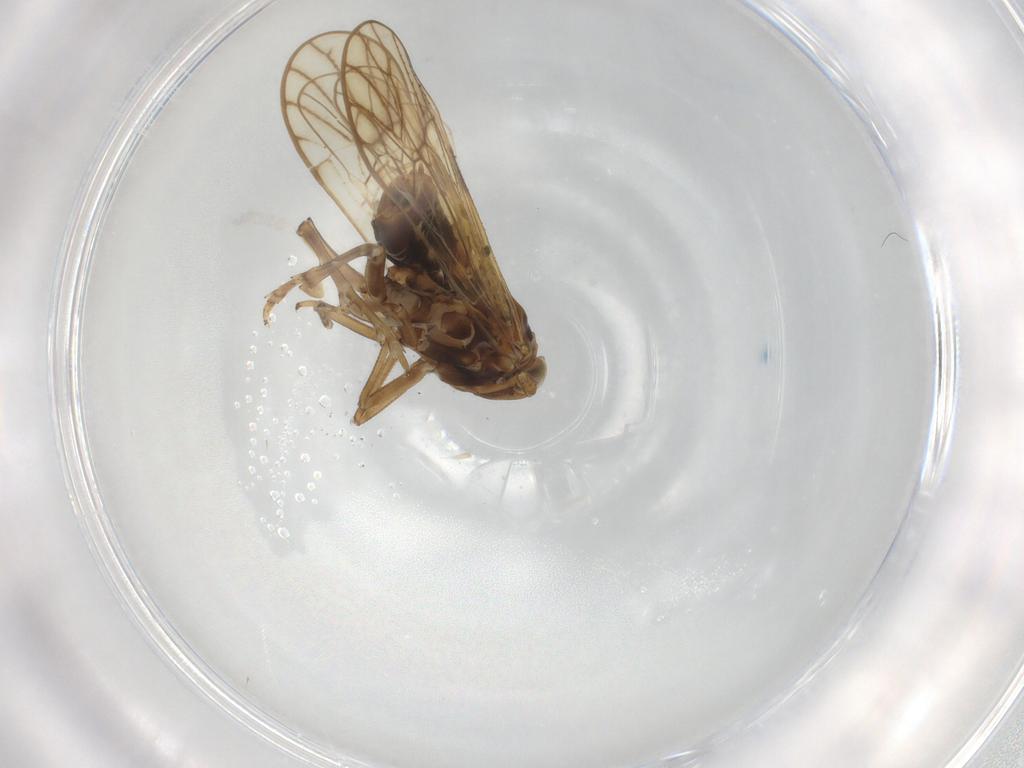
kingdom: Animalia
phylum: Arthropoda
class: Insecta
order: Hemiptera
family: Delphacidae
